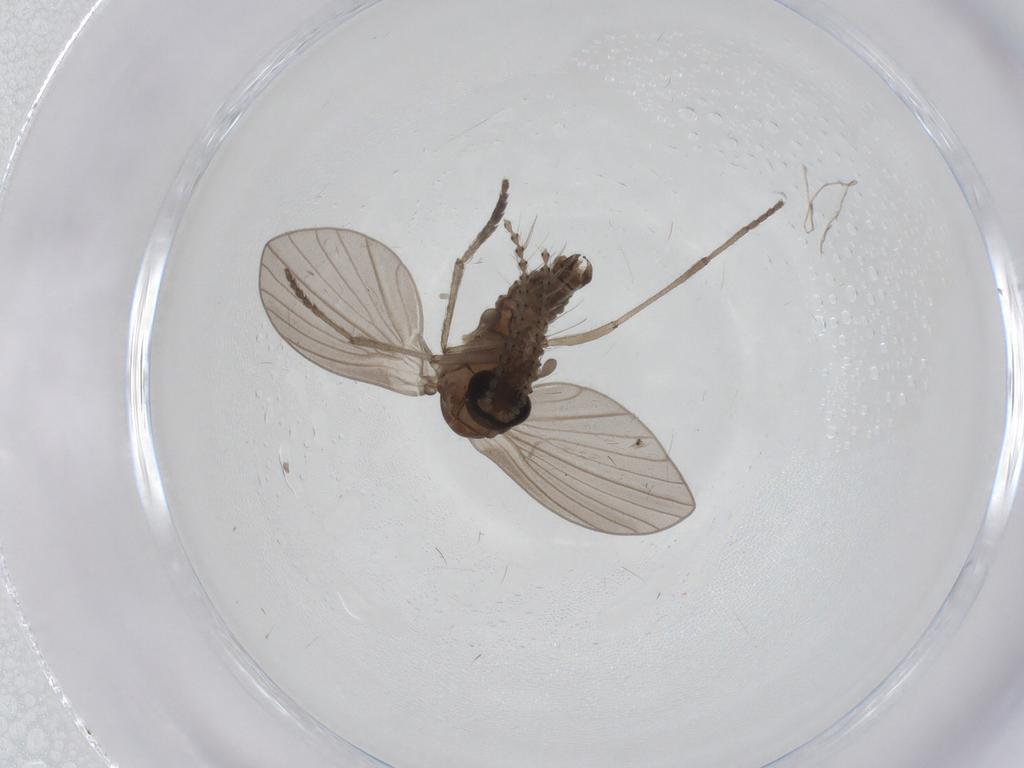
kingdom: Animalia
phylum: Arthropoda
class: Insecta
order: Diptera
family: Psychodidae
